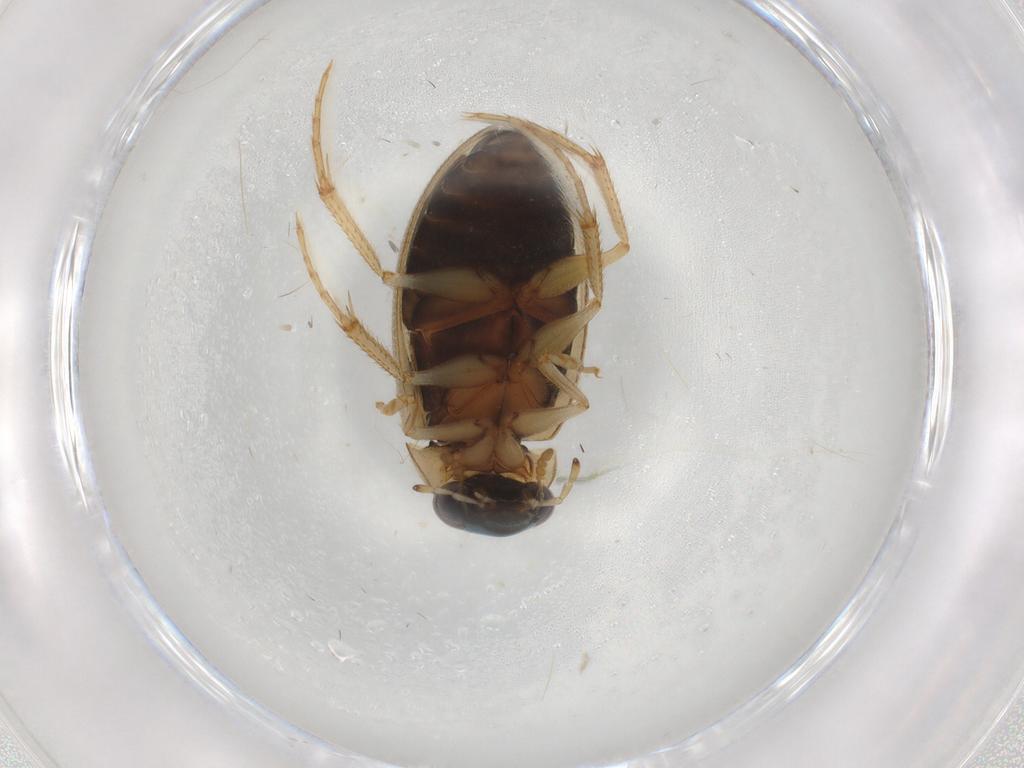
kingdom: Animalia
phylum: Arthropoda
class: Insecta
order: Coleoptera
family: Hydrophilidae
